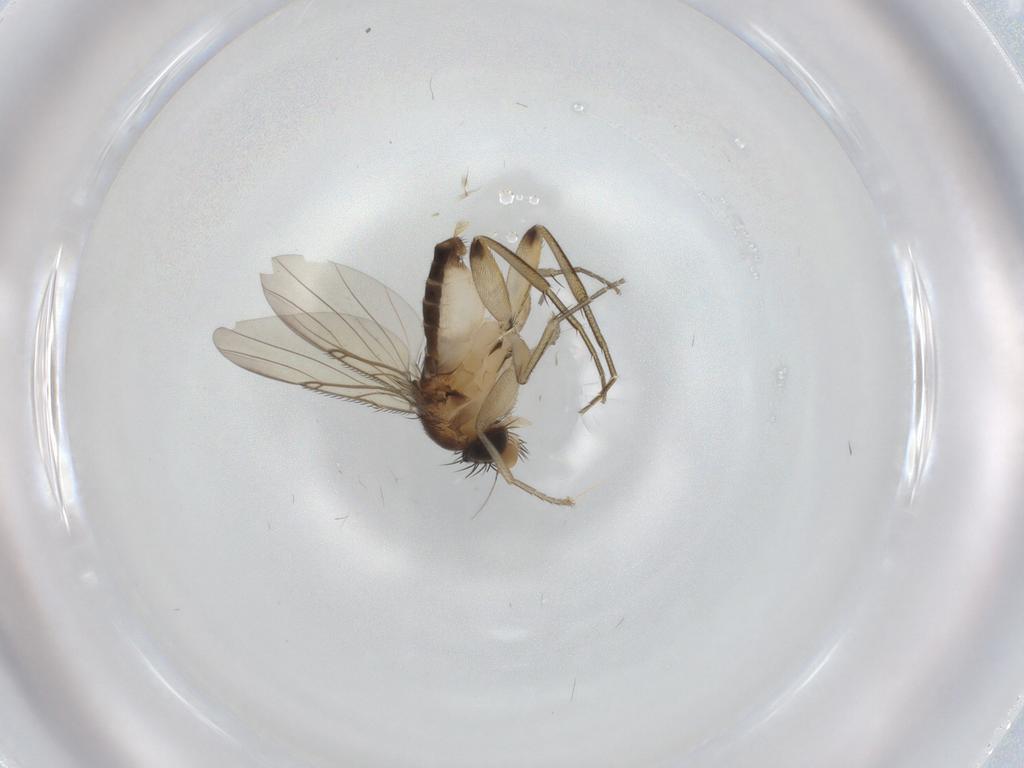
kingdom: Animalia
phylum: Arthropoda
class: Insecta
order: Diptera
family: Phoridae
